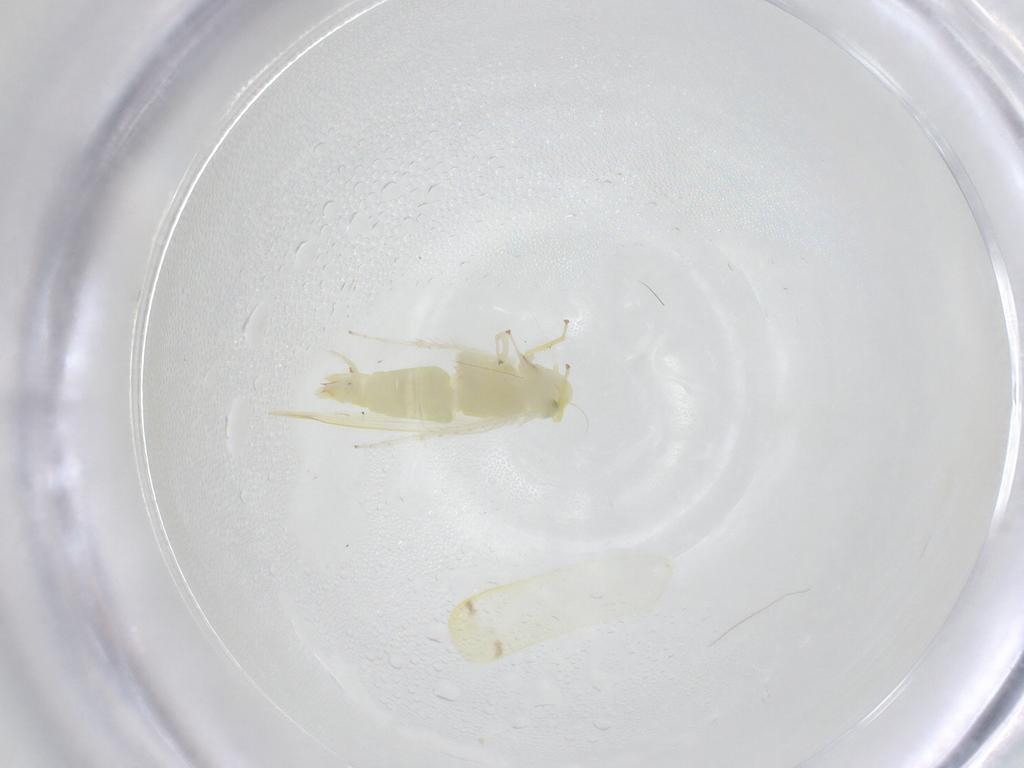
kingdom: Animalia
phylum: Arthropoda
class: Insecta
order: Hemiptera
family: Cicadellidae
